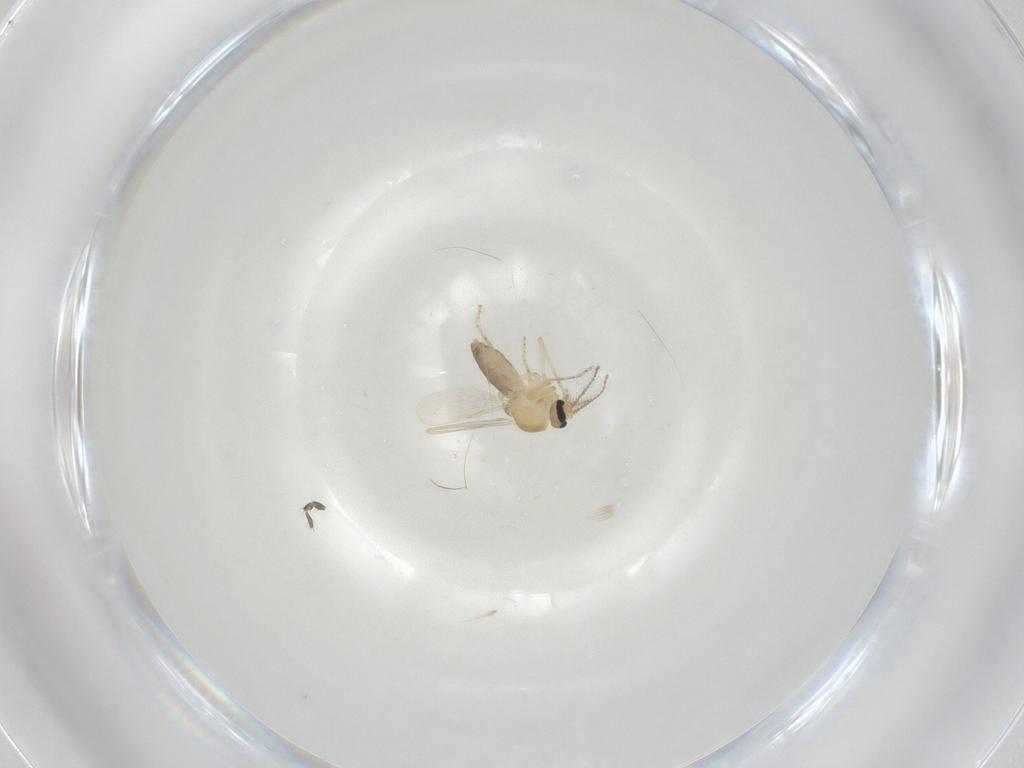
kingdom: Animalia
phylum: Arthropoda
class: Insecta
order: Diptera
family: Ceratopogonidae
